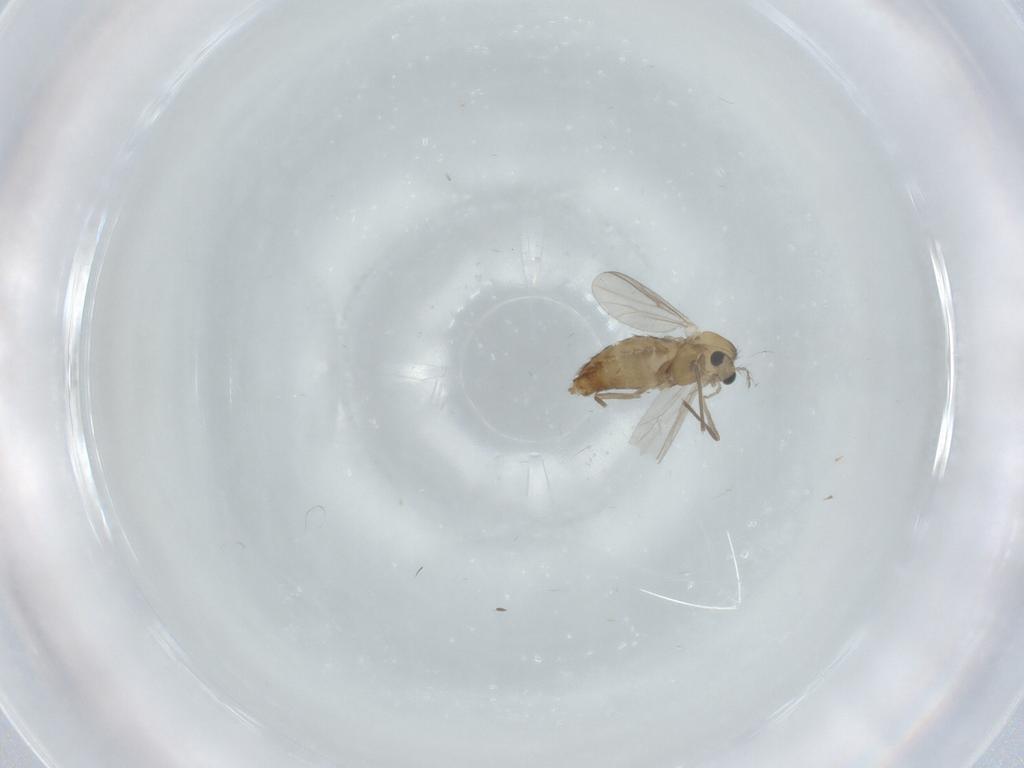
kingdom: Animalia
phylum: Arthropoda
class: Insecta
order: Diptera
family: Chironomidae
